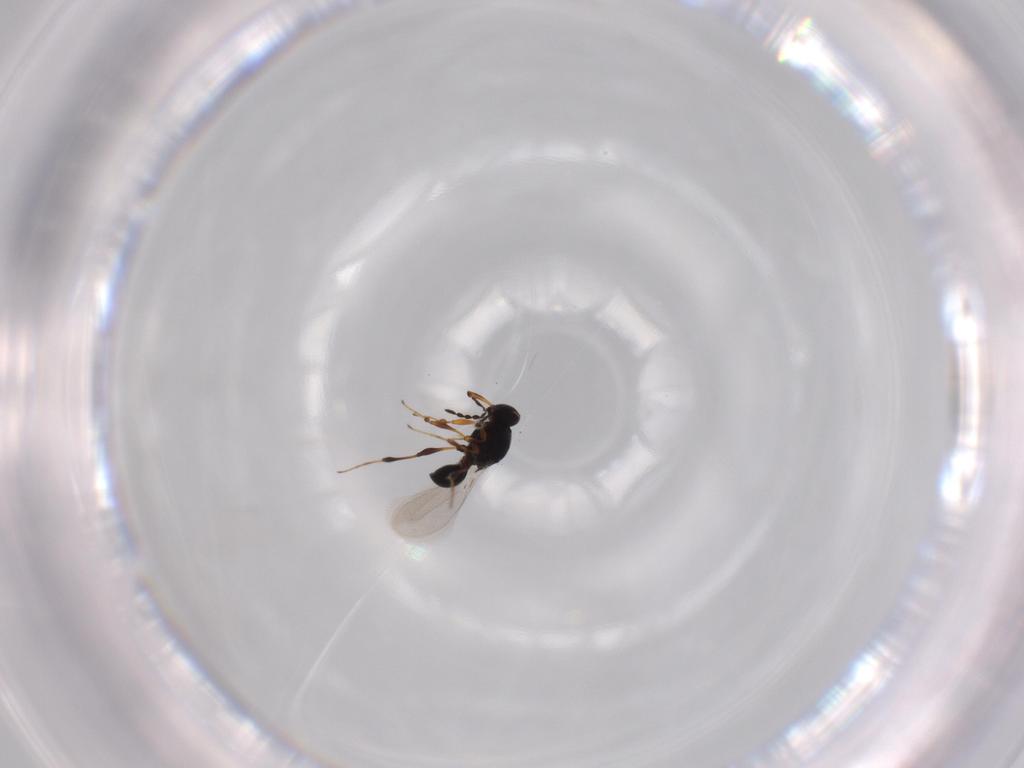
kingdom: Animalia
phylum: Arthropoda
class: Insecta
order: Hymenoptera
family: Platygastridae
